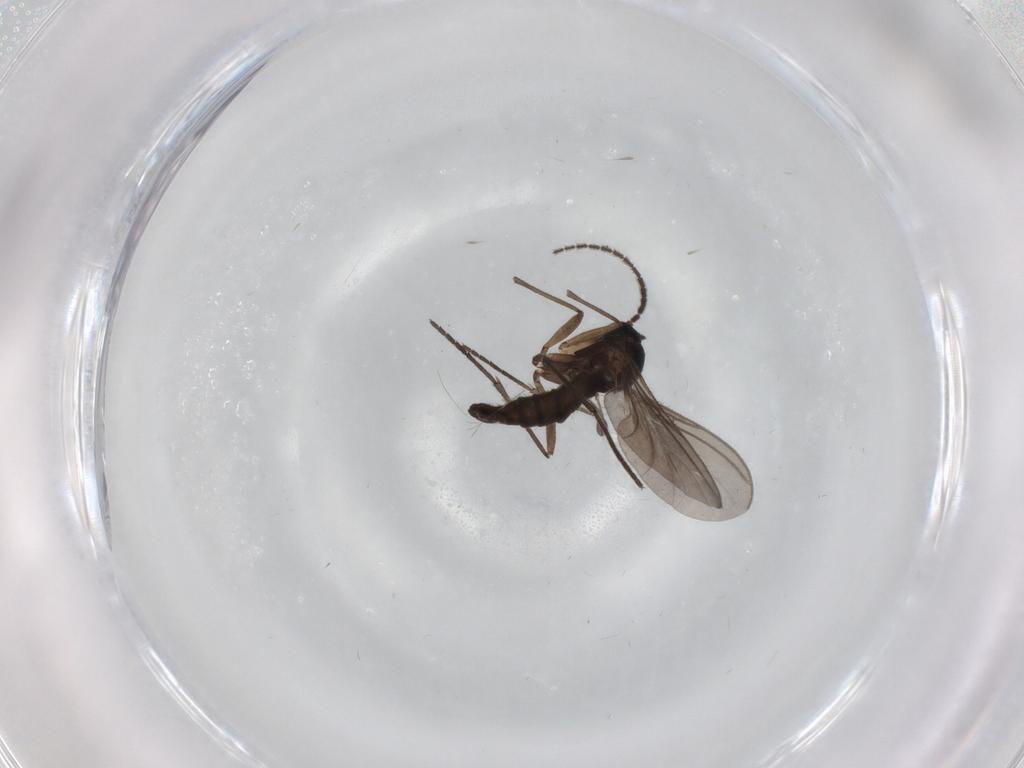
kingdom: Animalia
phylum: Arthropoda
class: Insecta
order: Diptera
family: Sciaridae
